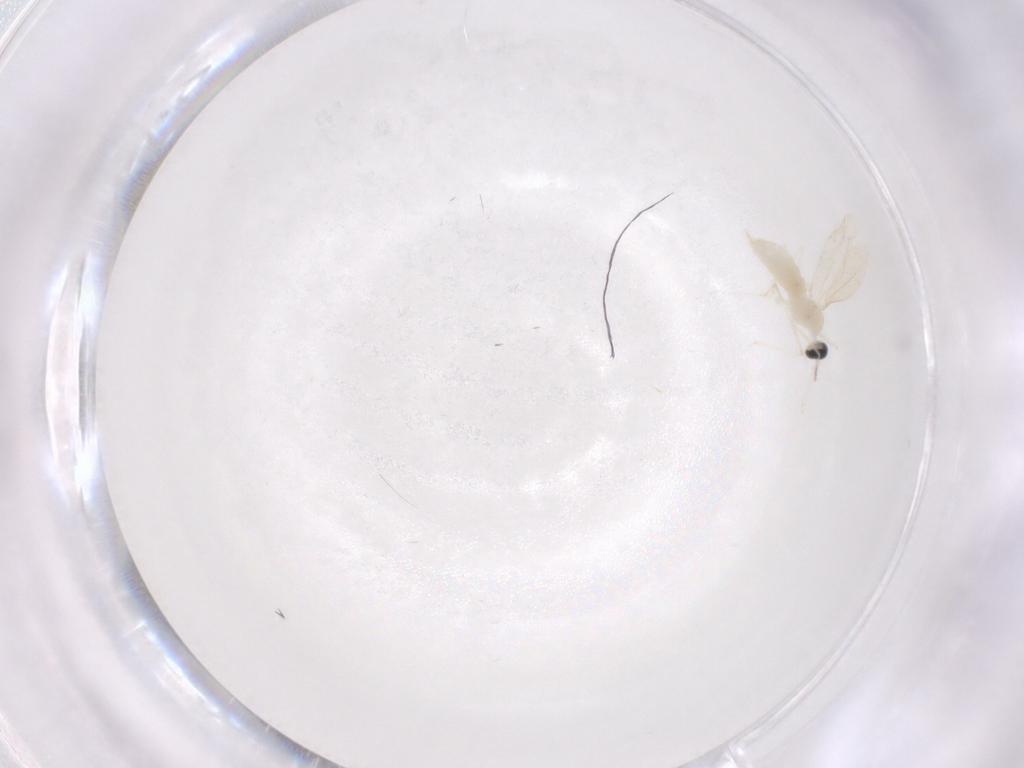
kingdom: Animalia
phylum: Arthropoda
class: Insecta
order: Diptera
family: Cecidomyiidae
